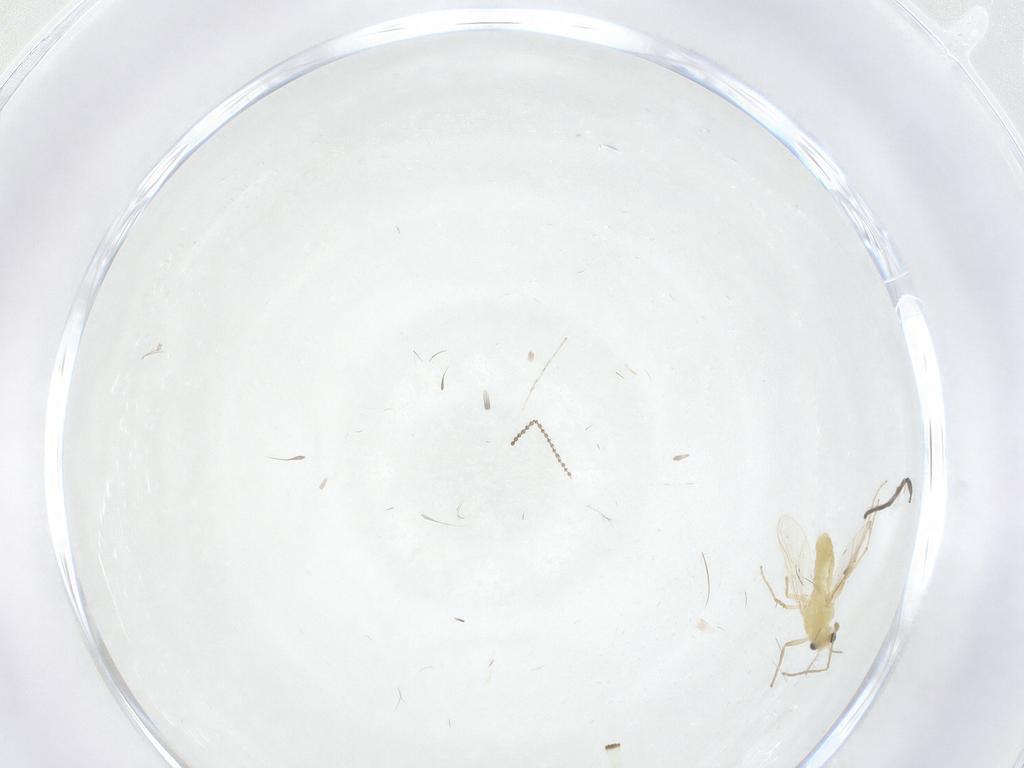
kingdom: Animalia
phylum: Arthropoda
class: Insecta
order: Diptera
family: Chironomidae
